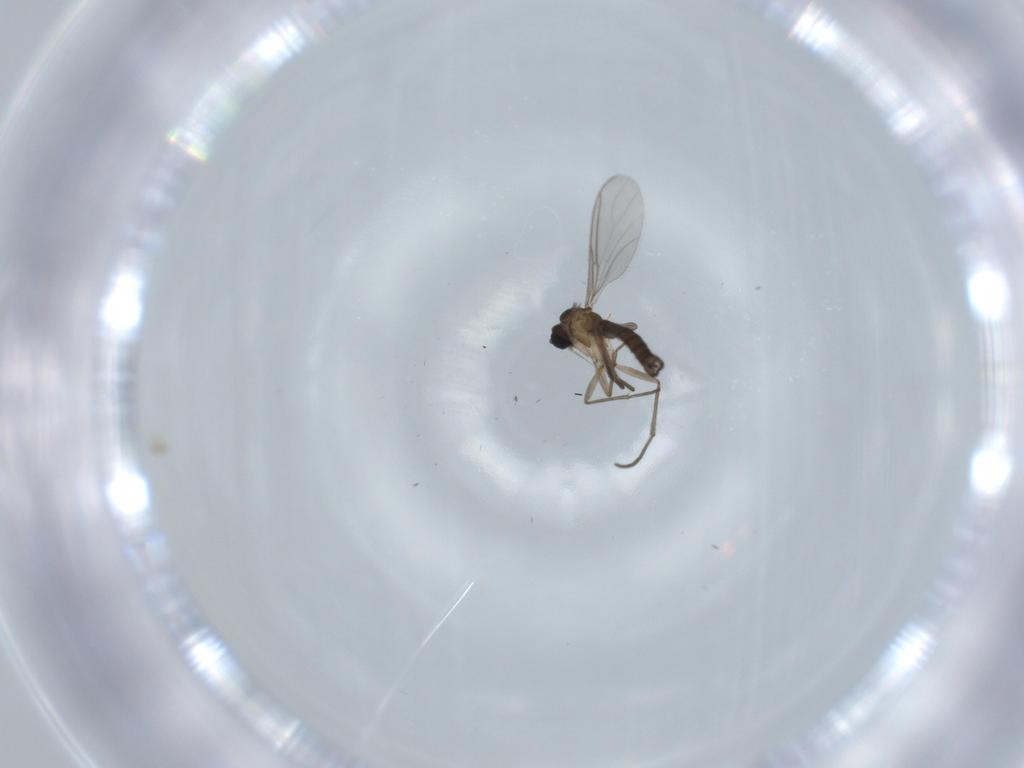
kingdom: Animalia
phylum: Arthropoda
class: Insecta
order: Diptera
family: Sciaridae
